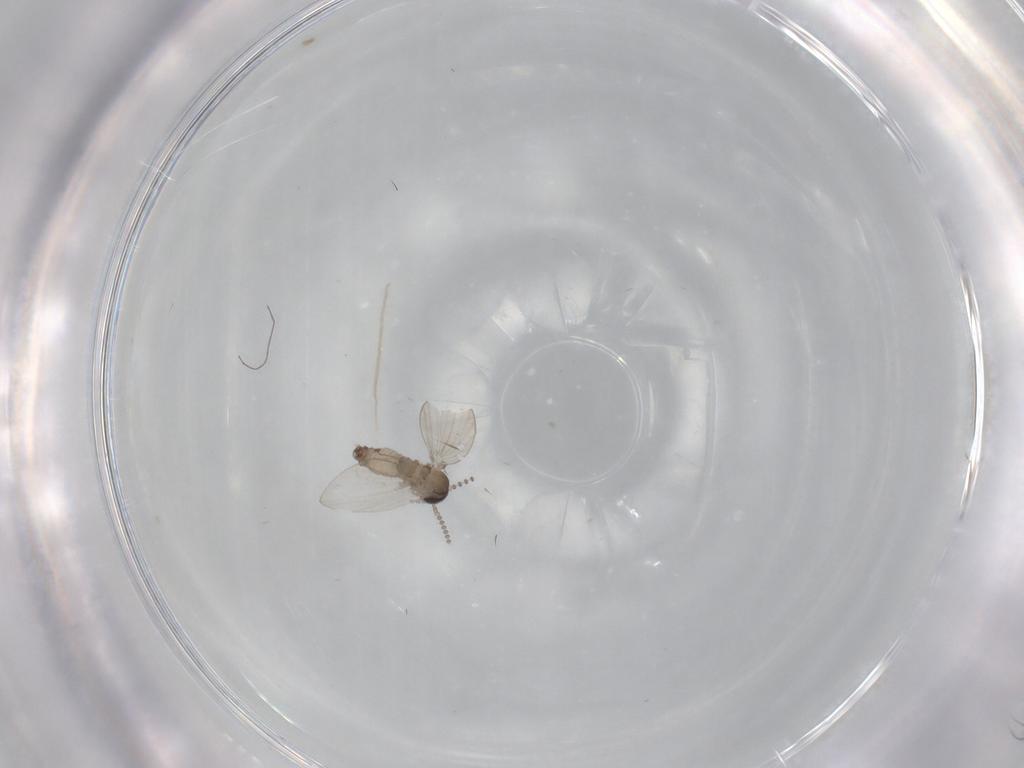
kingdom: Animalia
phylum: Arthropoda
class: Insecta
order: Diptera
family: Psychodidae
